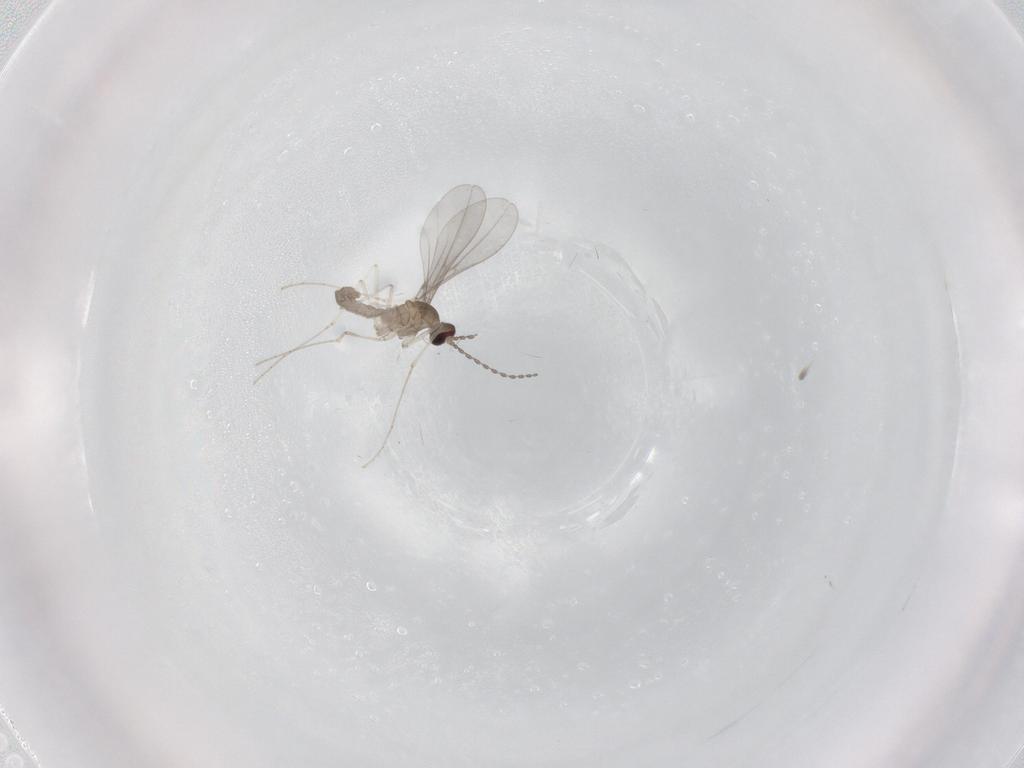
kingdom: Animalia
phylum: Arthropoda
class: Insecta
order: Diptera
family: Cecidomyiidae
